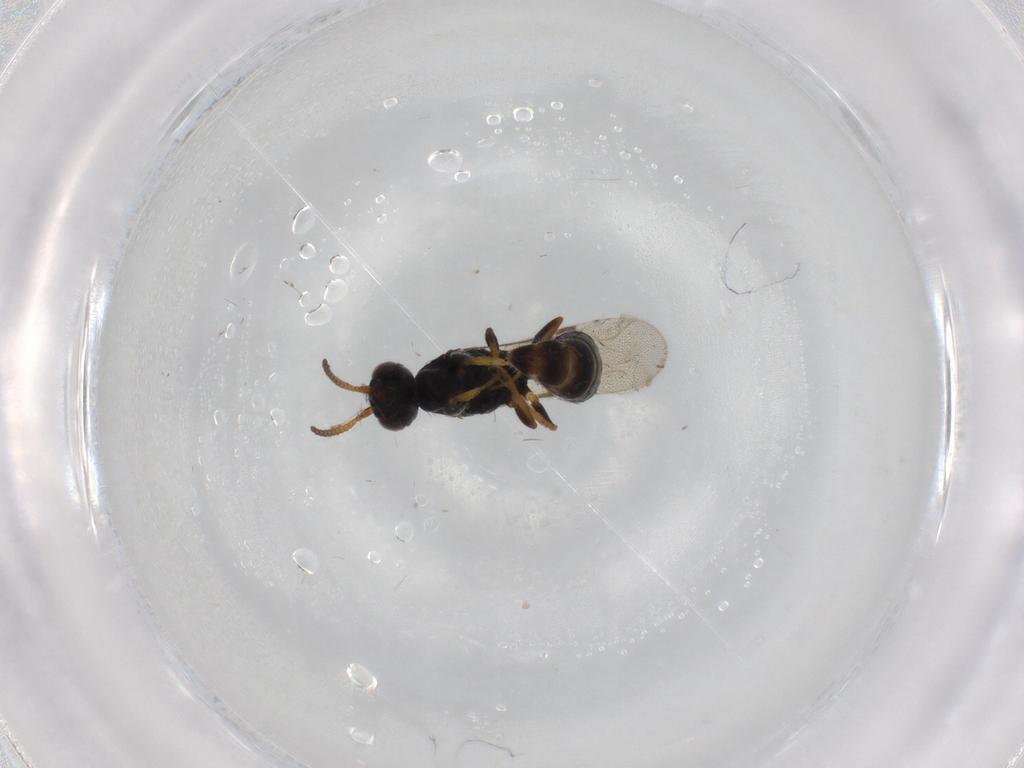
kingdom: Animalia
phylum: Arthropoda
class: Insecta
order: Hymenoptera
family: Bethylidae
